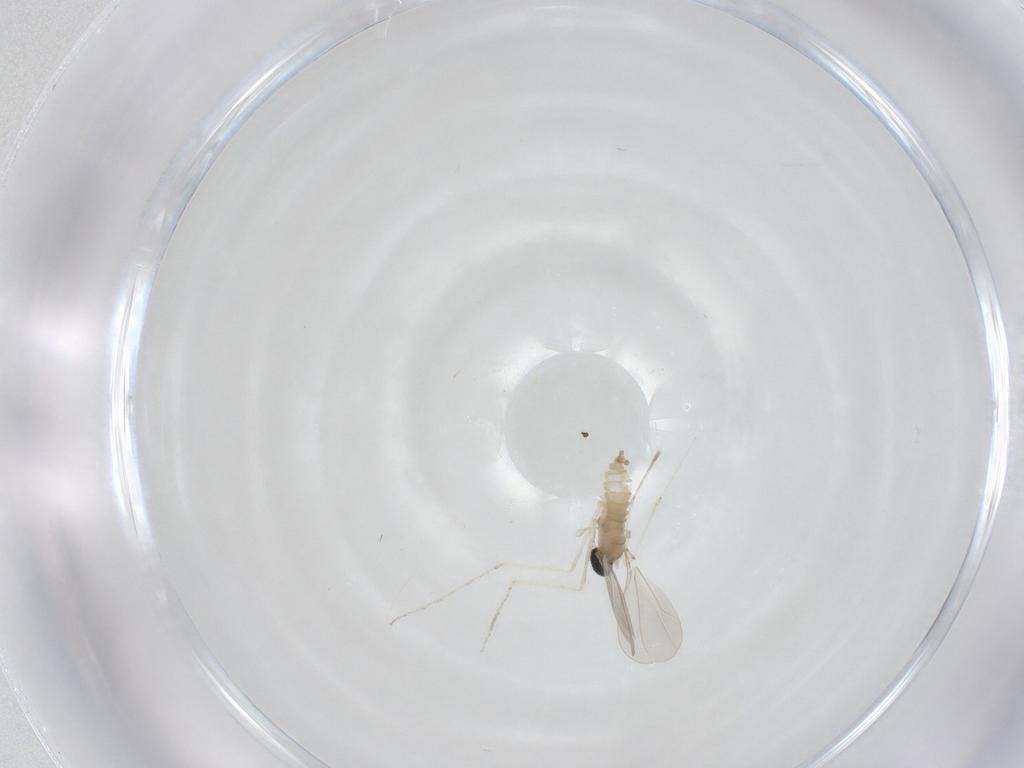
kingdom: Animalia
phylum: Arthropoda
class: Insecta
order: Diptera
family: Cecidomyiidae
